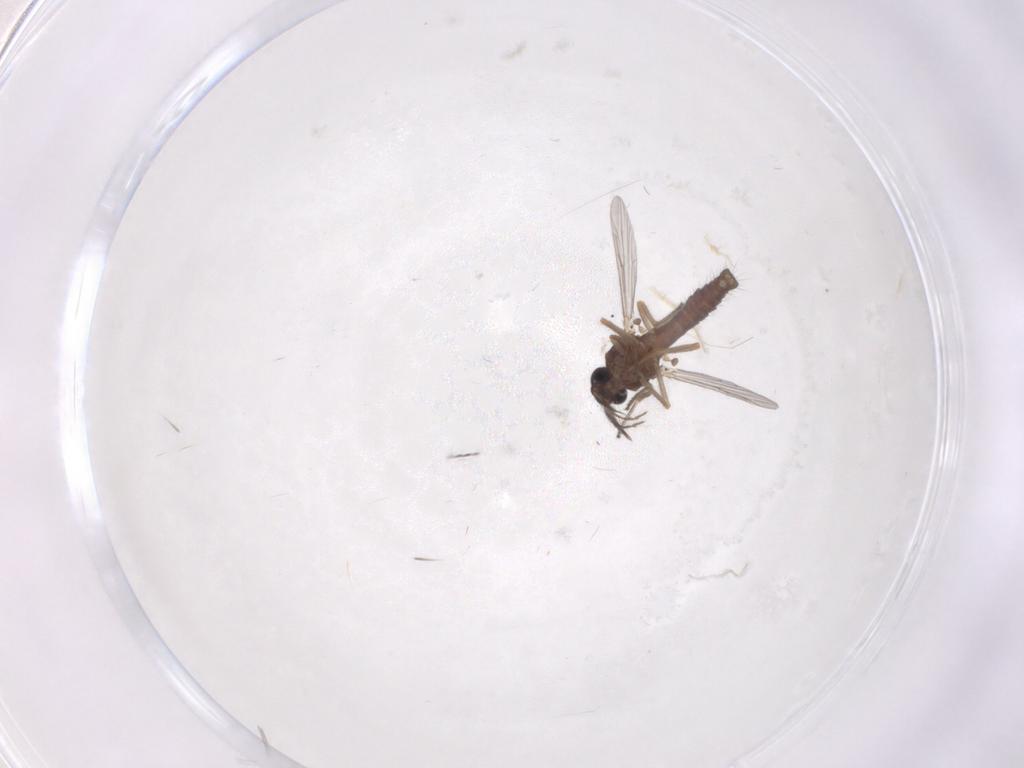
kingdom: Animalia
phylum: Arthropoda
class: Insecta
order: Diptera
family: Ceratopogonidae
